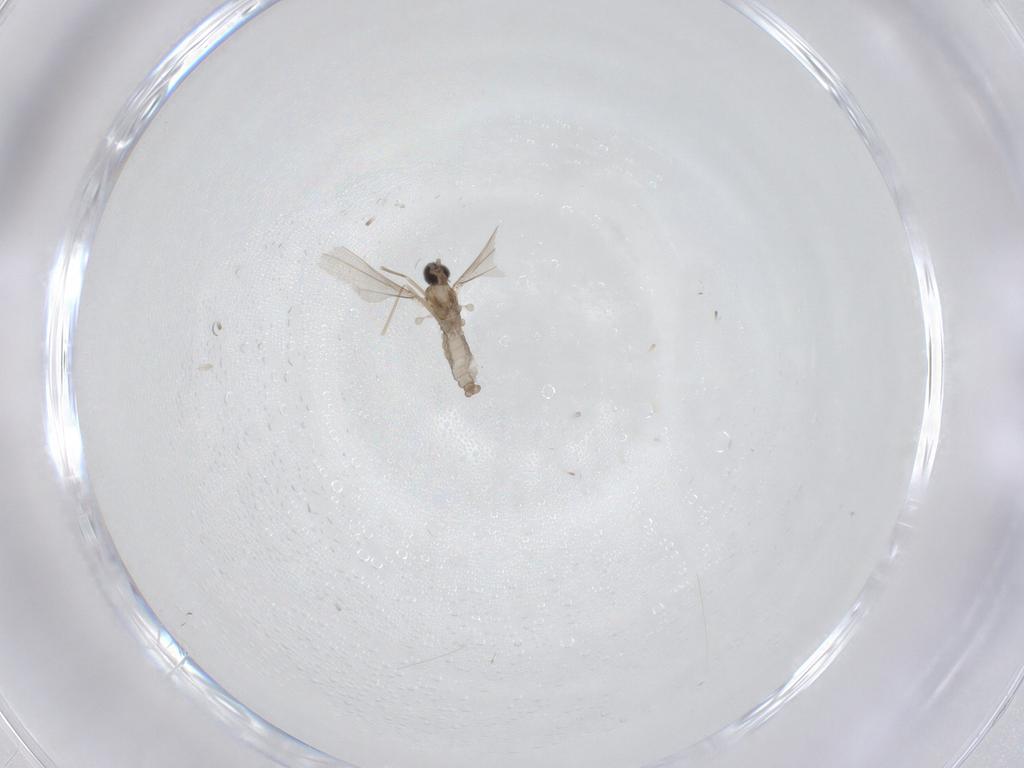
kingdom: Animalia
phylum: Arthropoda
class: Insecta
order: Diptera
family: Cecidomyiidae
